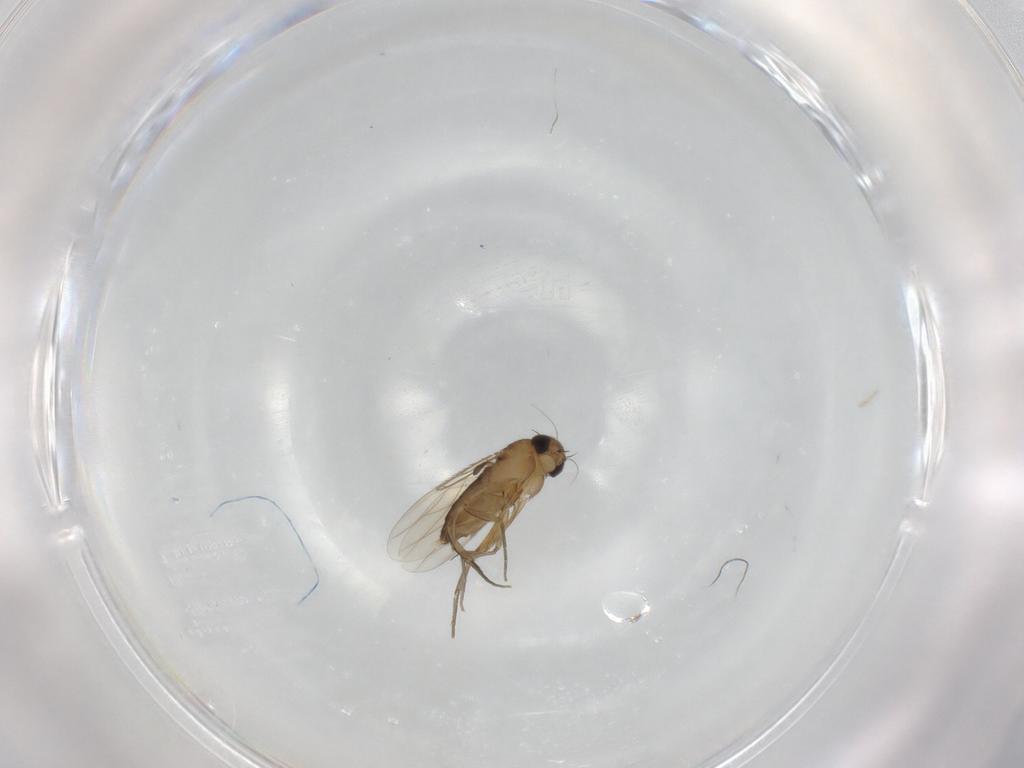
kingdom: Animalia
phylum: Arthropoda
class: Insecta
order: Diptera
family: Phoridae
